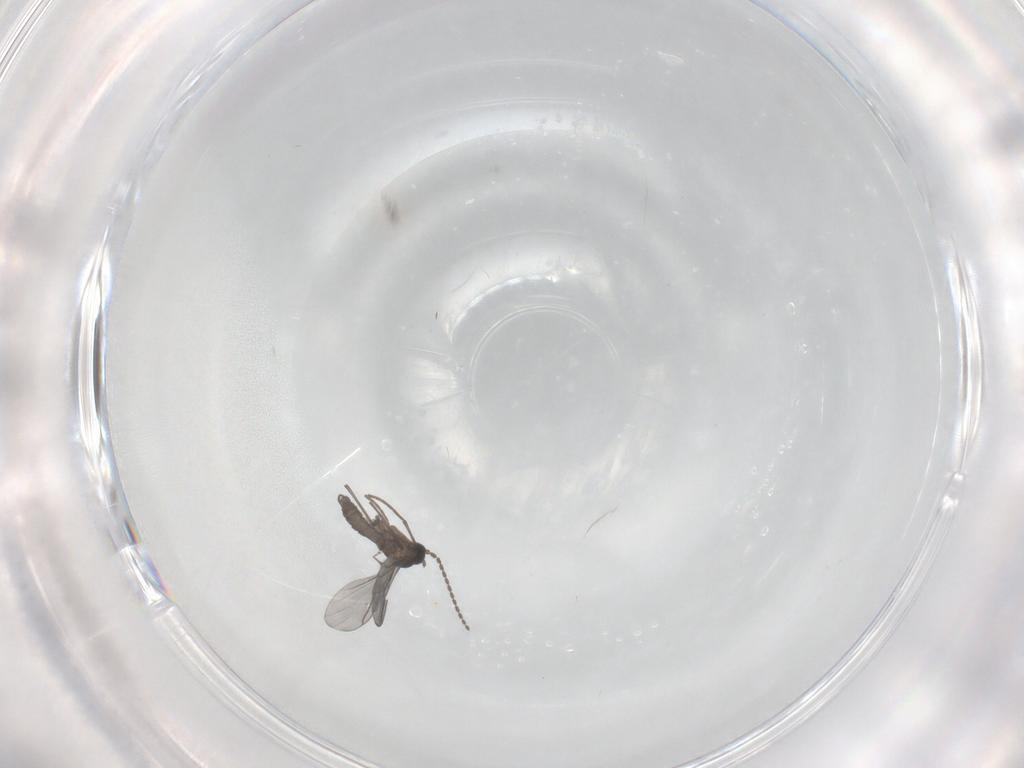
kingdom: Animalia
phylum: Arthropoda
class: Insecta
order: Diptera
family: Sciaridae
